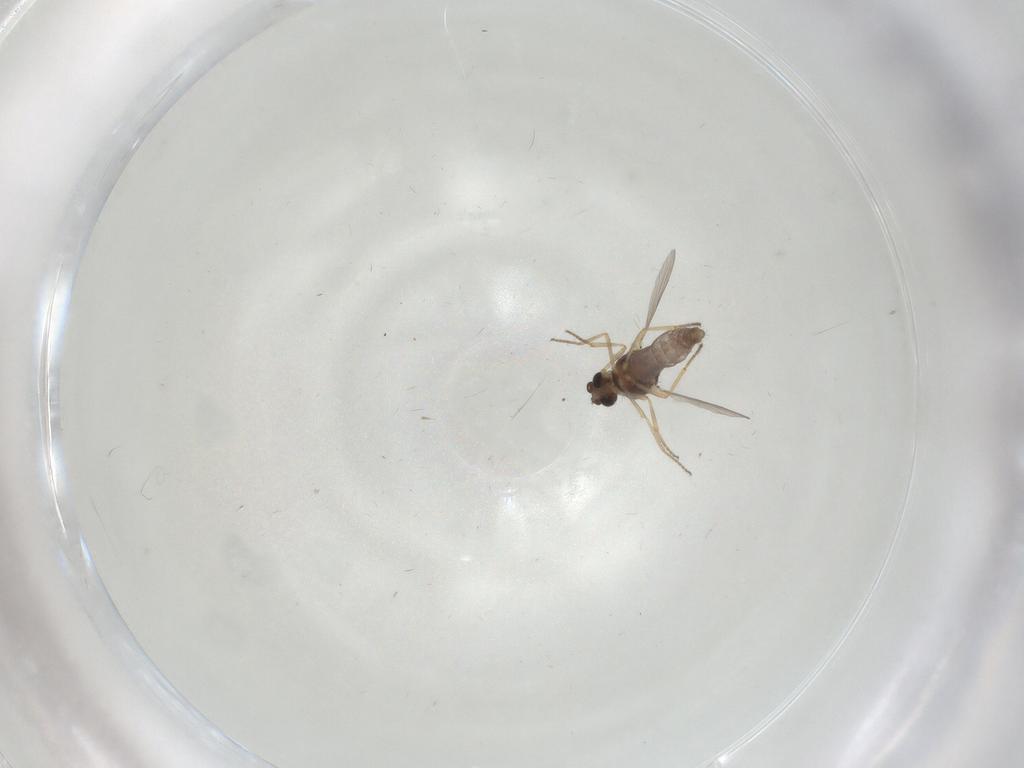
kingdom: Animalia
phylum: Arthropoda
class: Insecta
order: Diptera
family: Ceratopogonidae
